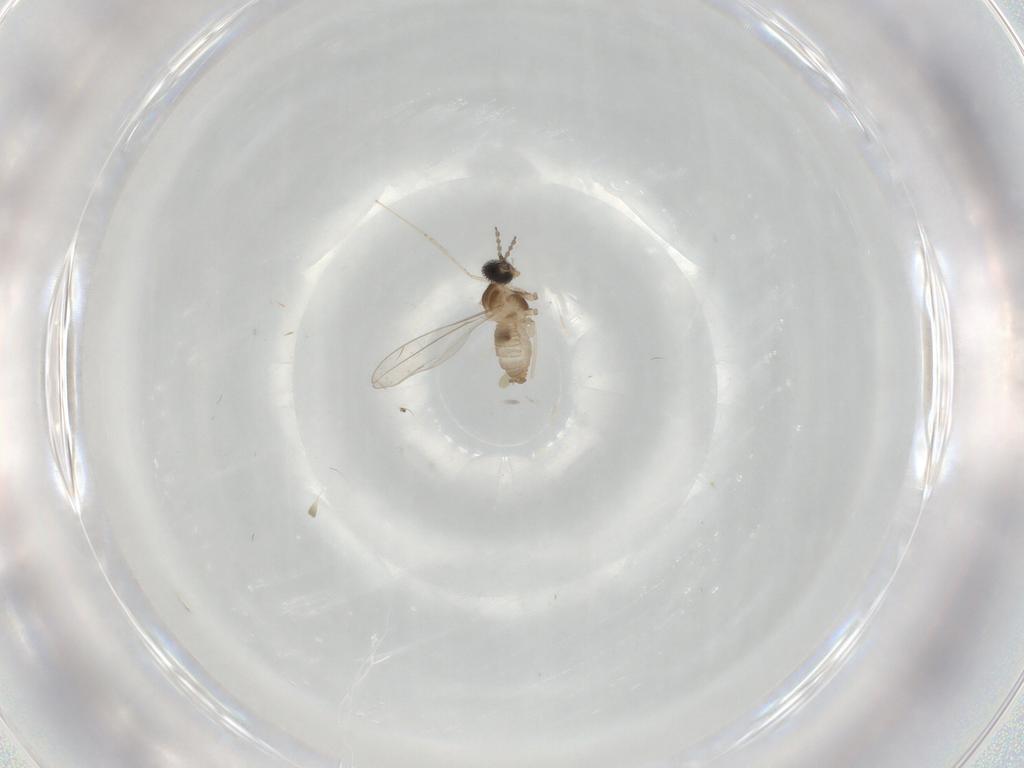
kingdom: Animalia
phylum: Arthropoda
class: Insecta
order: Diptera
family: Cecidomyiidae
